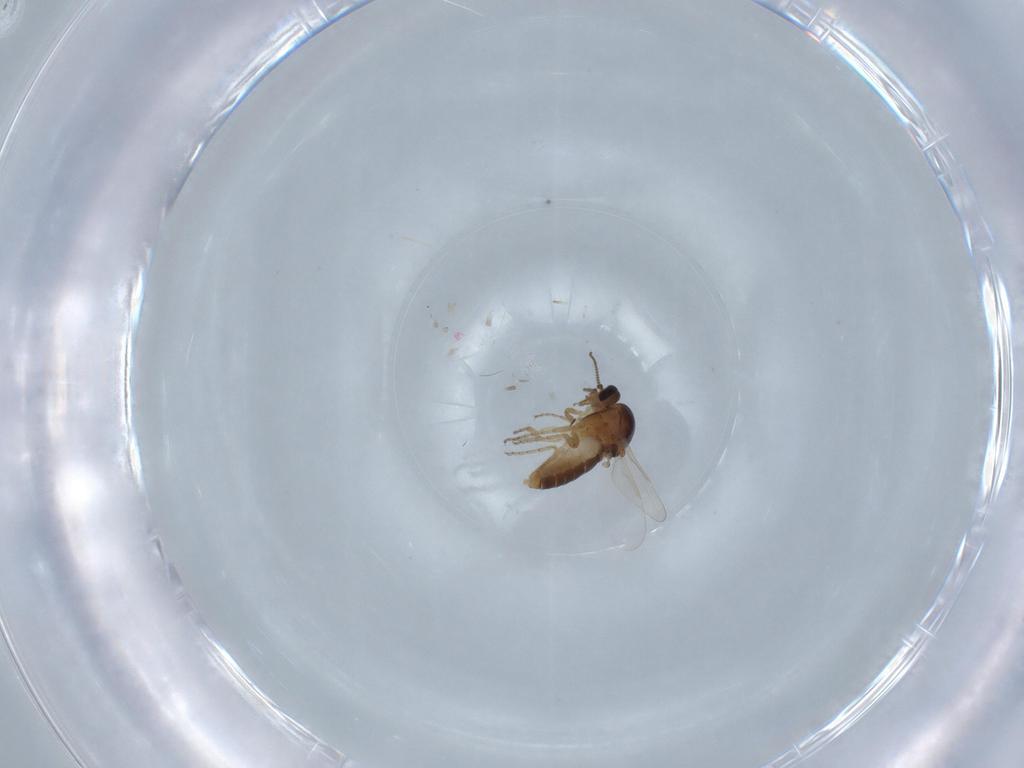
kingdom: Animalia
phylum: Arthropoda
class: Insecta
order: Diptera
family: Ceratopogonidae
